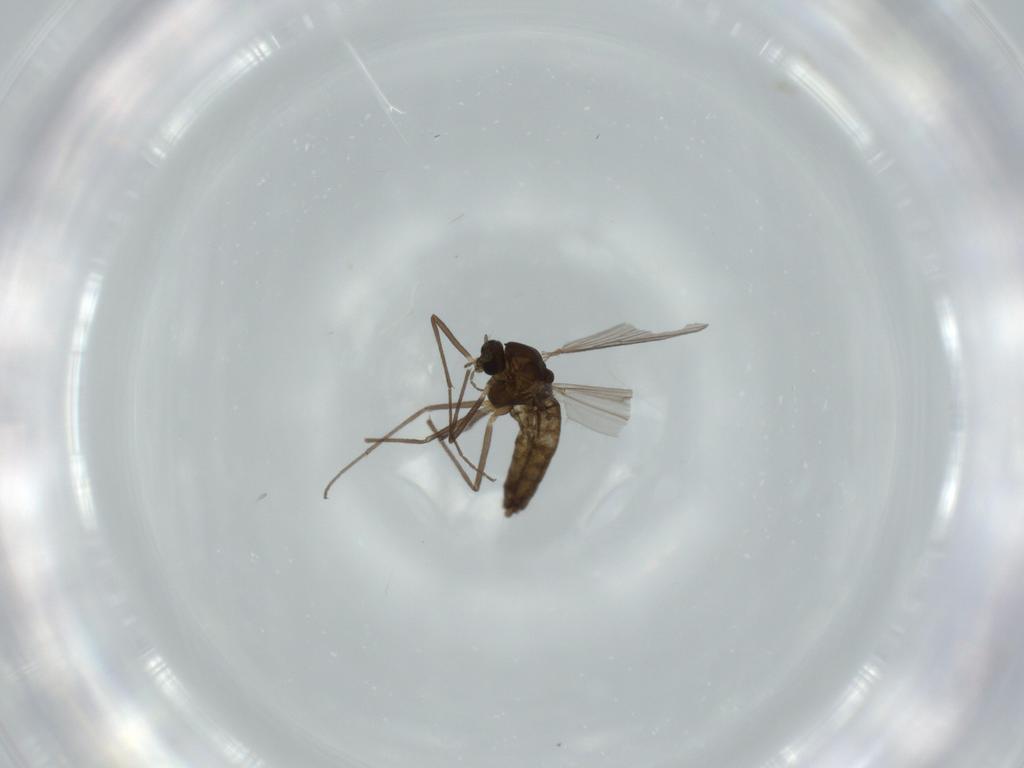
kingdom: Animalia
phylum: Arthropoda
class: Insecta
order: Diptera
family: Chironomidae
